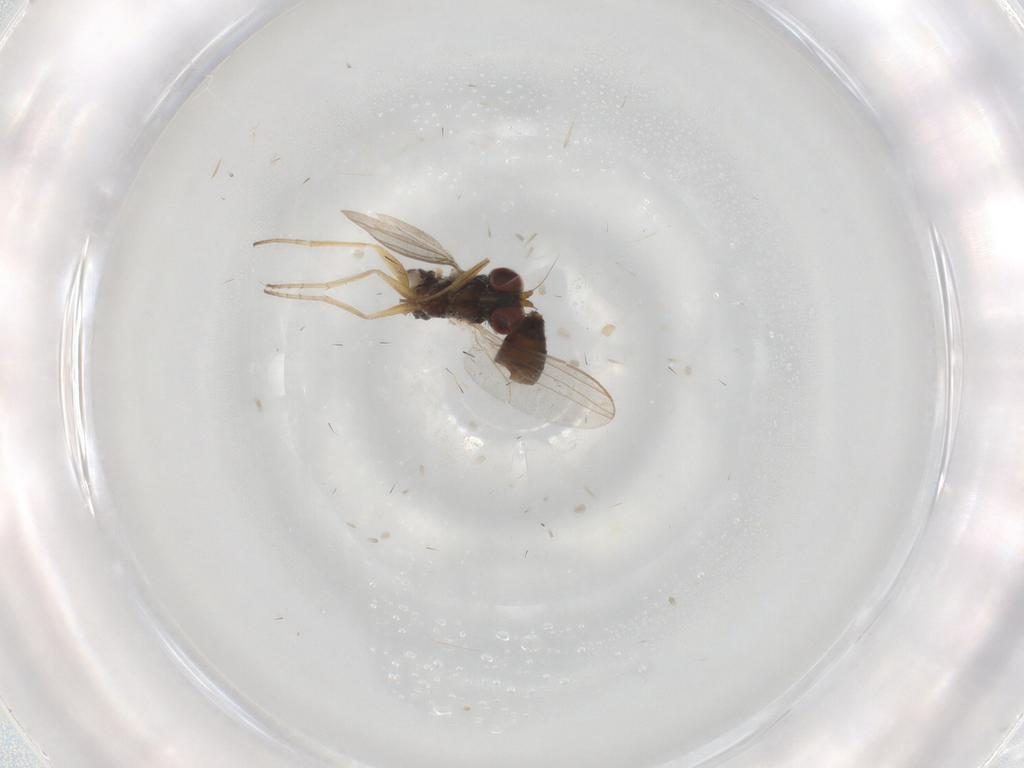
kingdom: Animalia
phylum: Arthropoda
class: Insecta
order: Diptera
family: Dolichopodidae
